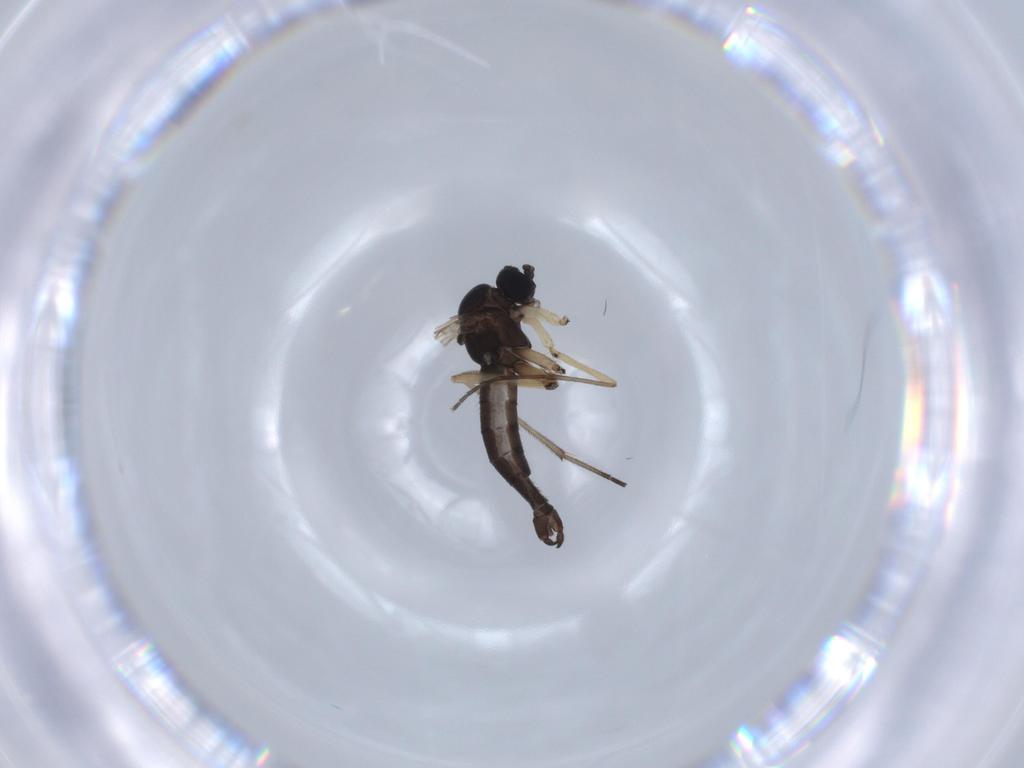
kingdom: Animalia
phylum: Arthropoda
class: Insecta
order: Diptera
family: Sciaridae
